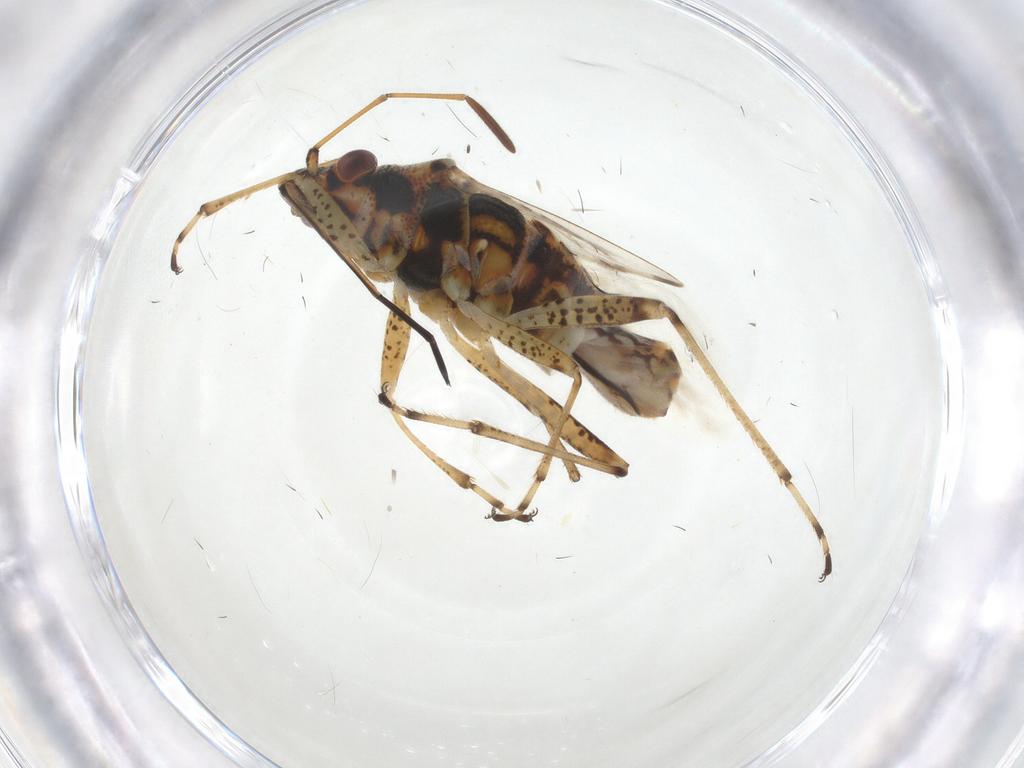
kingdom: Animalia
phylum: Arthropoda
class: Insecta
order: Hemiptera
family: Lygaeidae
